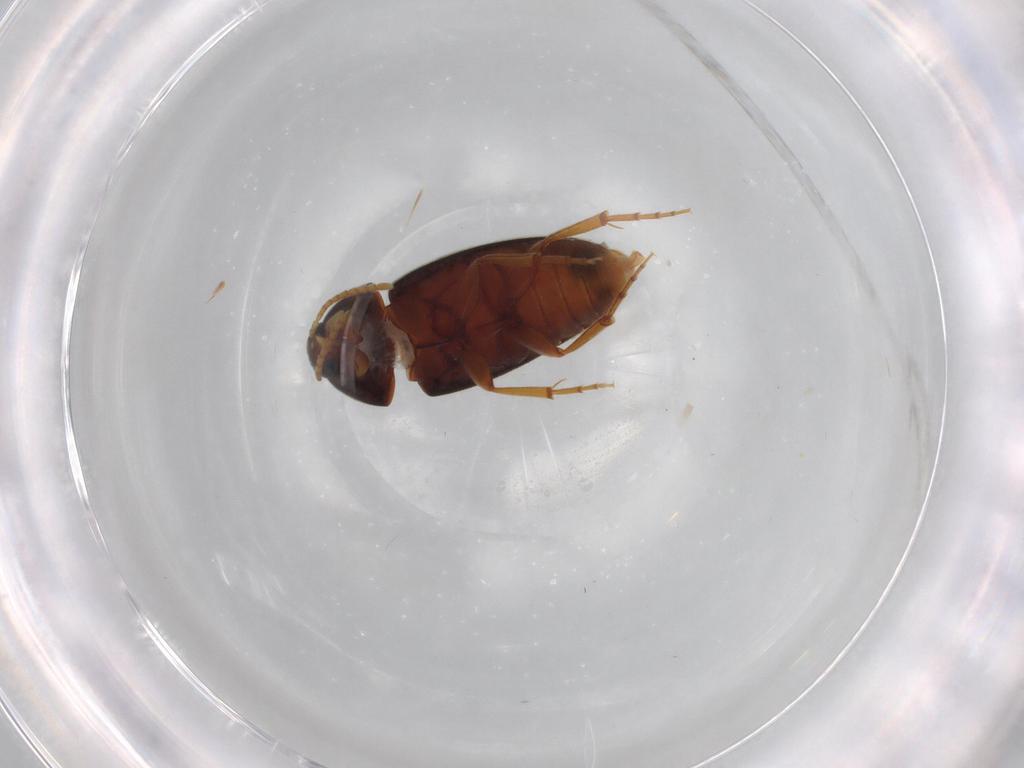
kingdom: Animalia
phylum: Arthropoda
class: Insecta
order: Coleoptera
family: Scraptiidae
